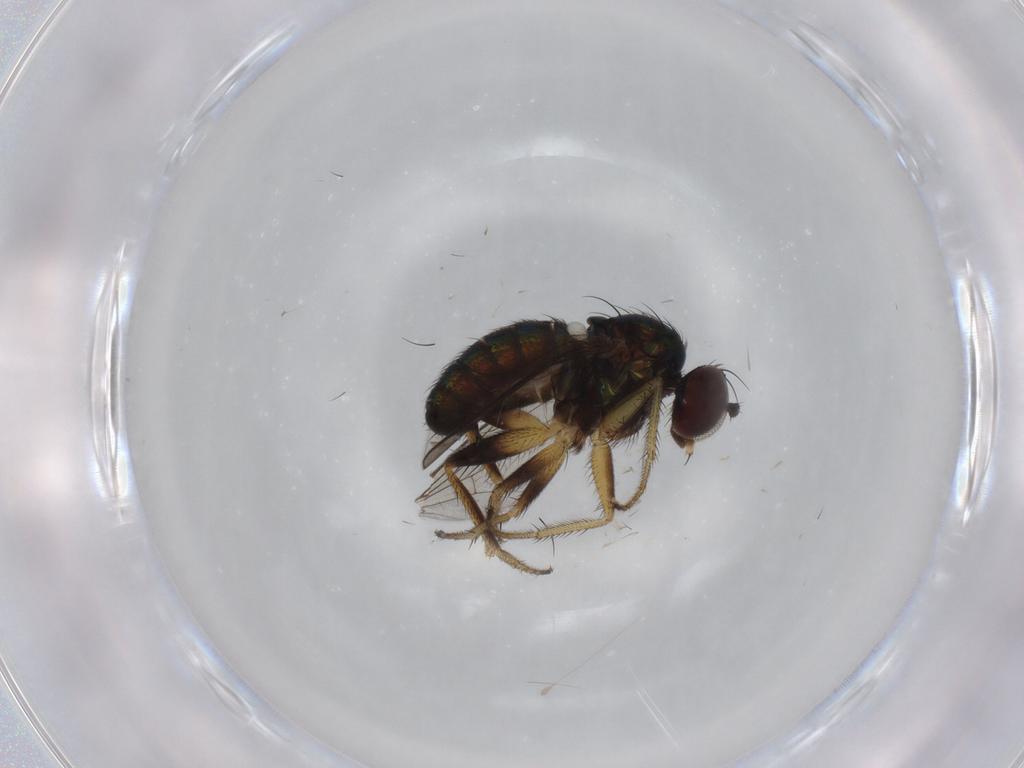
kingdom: Animalia
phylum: Arthropoda
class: Insecta
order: Diptera
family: Dolichopodidae
